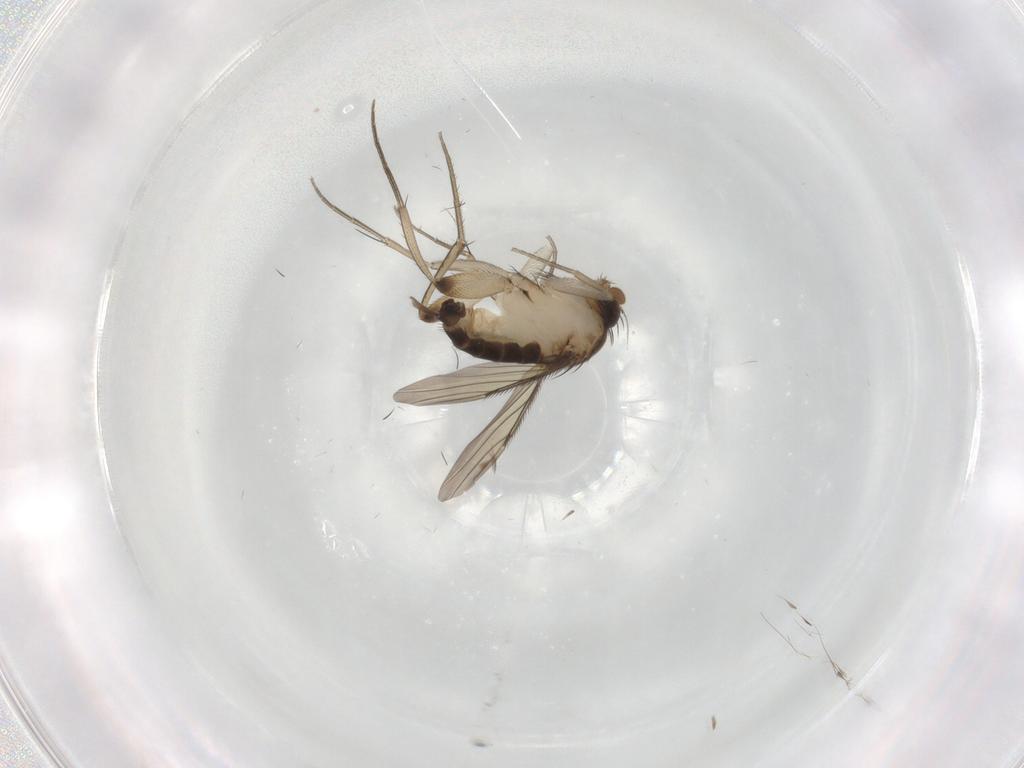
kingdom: Animalia
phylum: Arthropoda
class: Insecta
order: Diptera
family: Phoridae
